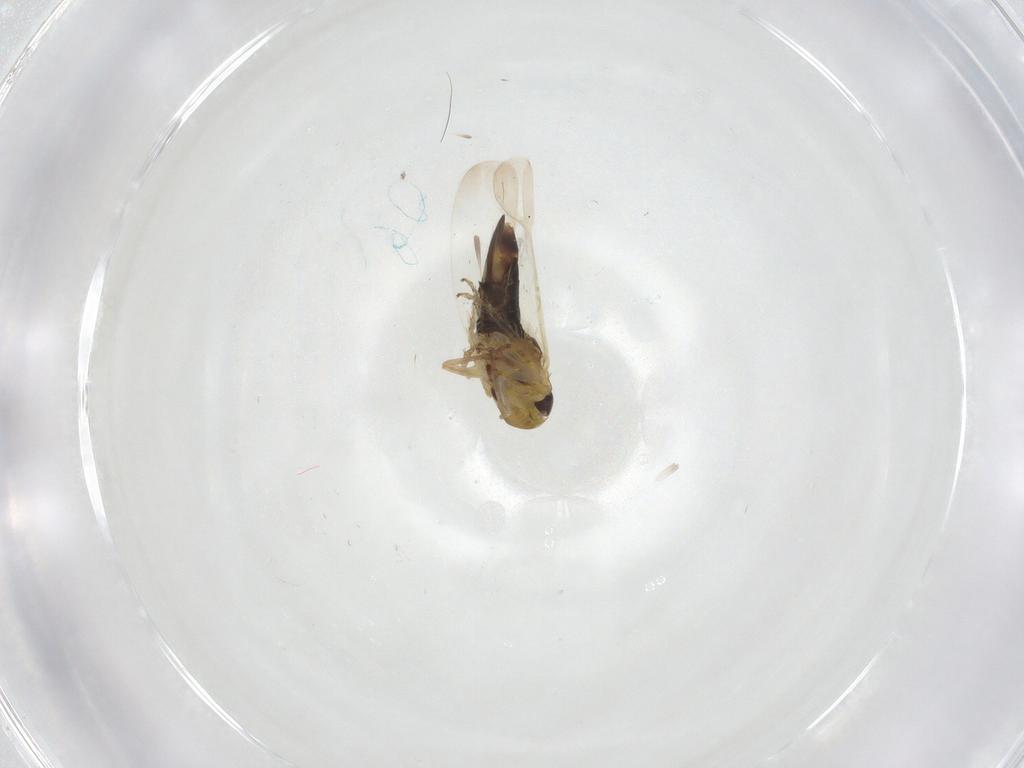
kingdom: Animalia
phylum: Arthropoda
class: Insecta
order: Hemiptera
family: Cicadellidae
